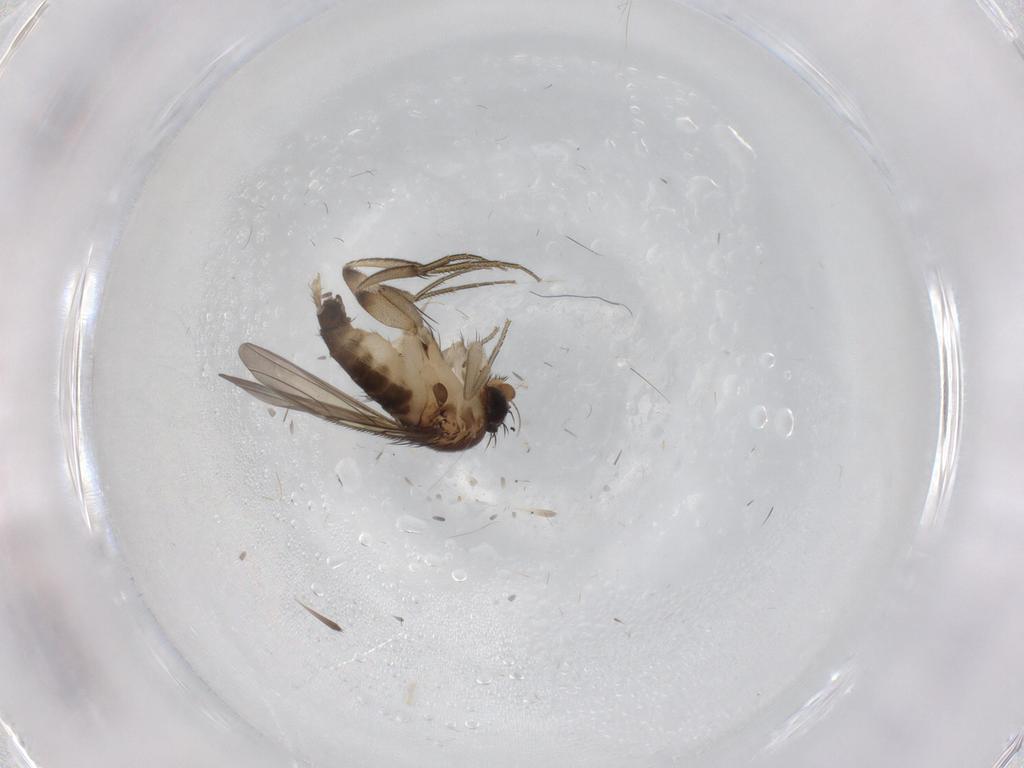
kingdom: Animalia
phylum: Arthropoda
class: Insecta
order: Diptera
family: Phoridae
